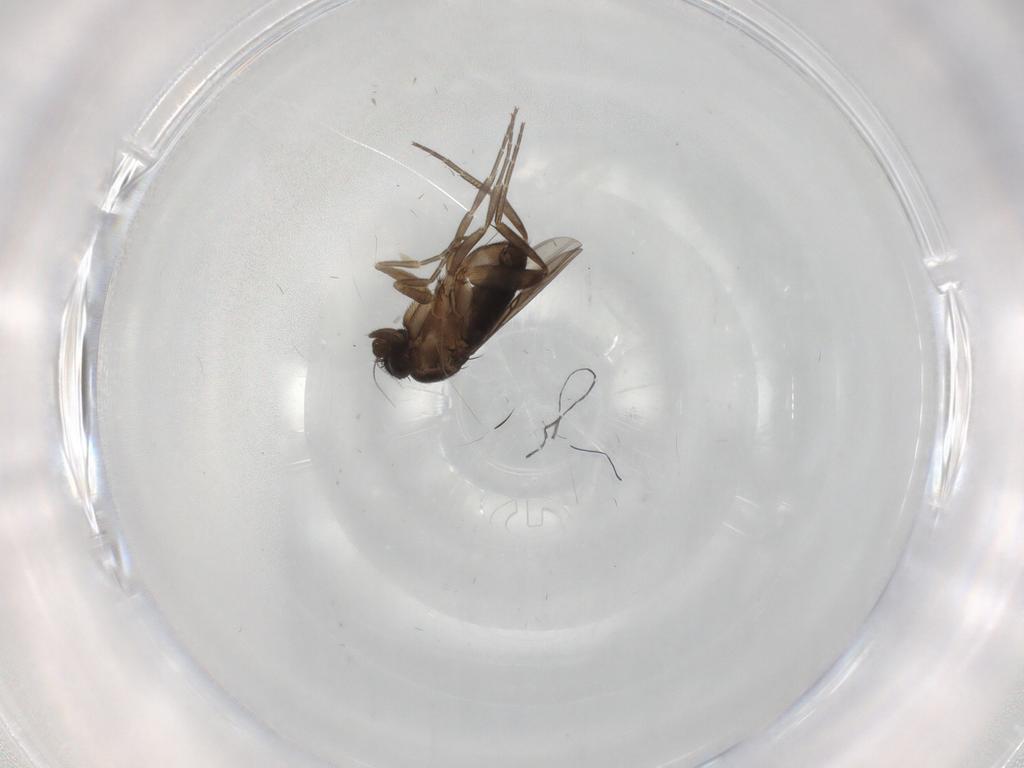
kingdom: Animalia
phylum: Arthropoda
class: Insecta
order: Diptera
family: Phoridae
